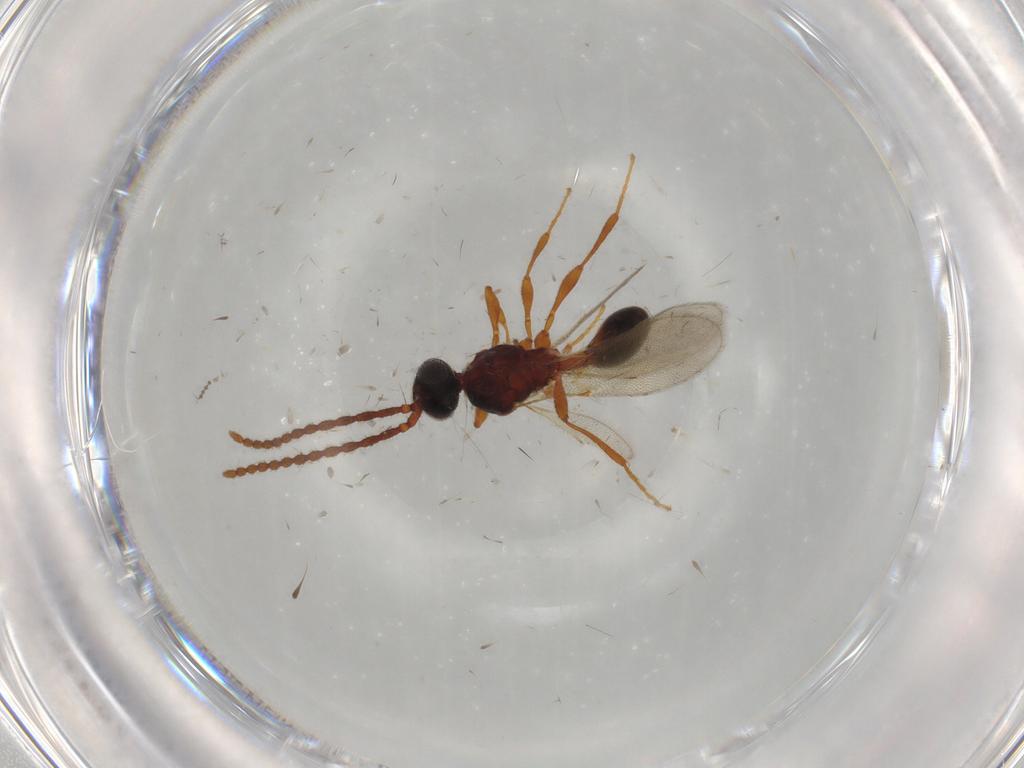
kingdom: Animalia
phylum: Arthropoda
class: Insecta
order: Hymenoptera
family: Diapriidae
